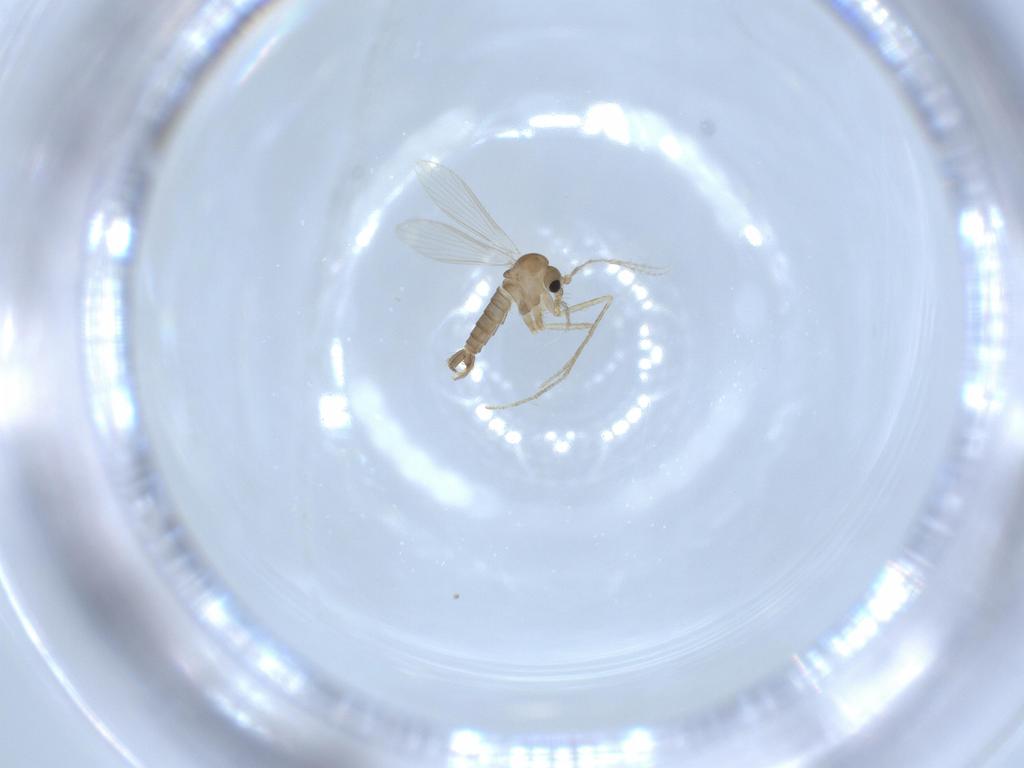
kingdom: Animalia
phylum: Arthropoda
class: Insecta
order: Diptera
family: Psychodidae
